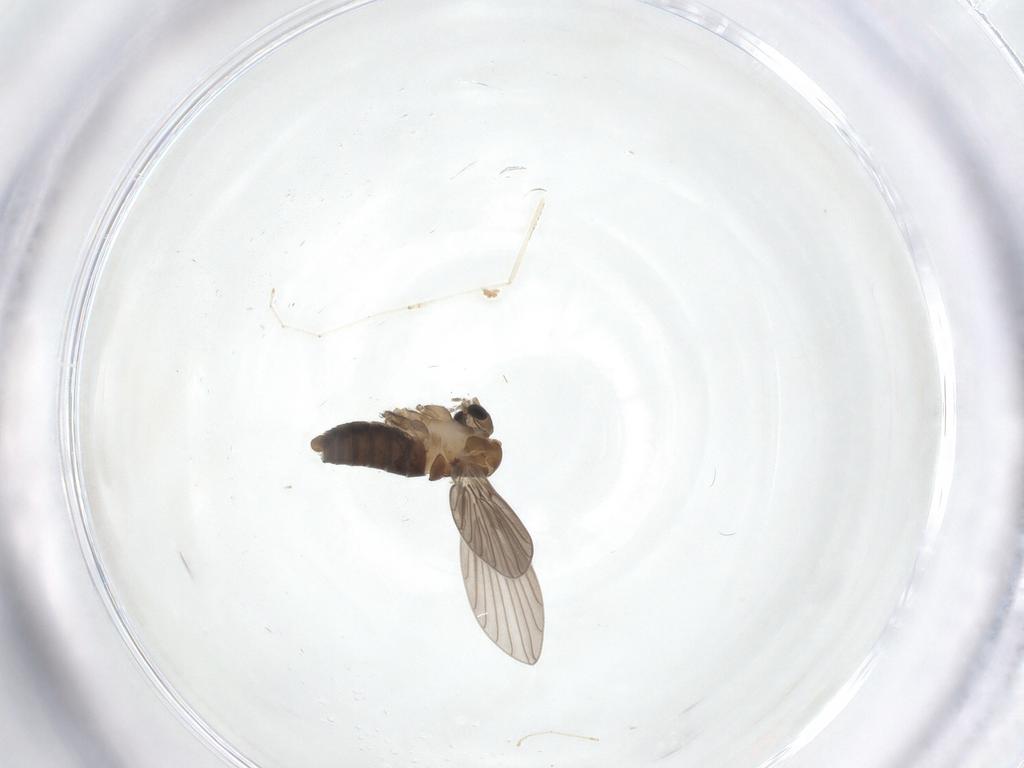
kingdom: Animalia
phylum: Arthropoda
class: Insecta
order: Diptera
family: Cecidomyiidae
